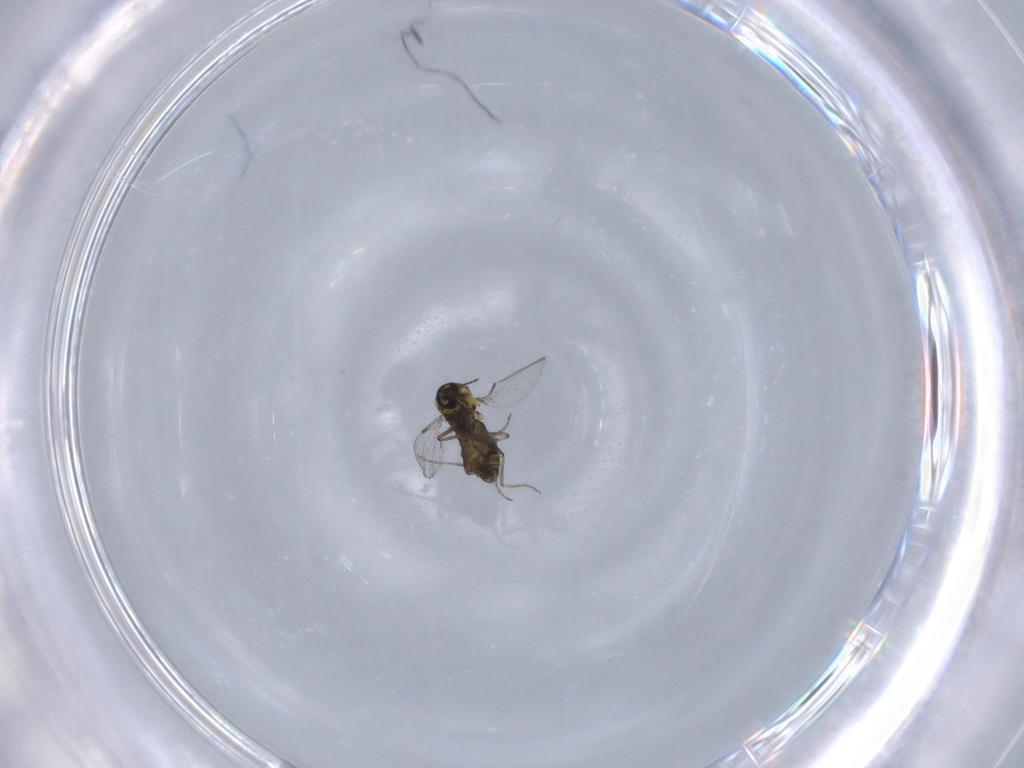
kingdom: Animalia
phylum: Arthropoda
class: Insecta
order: Diptera
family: Ceratopogonidae
